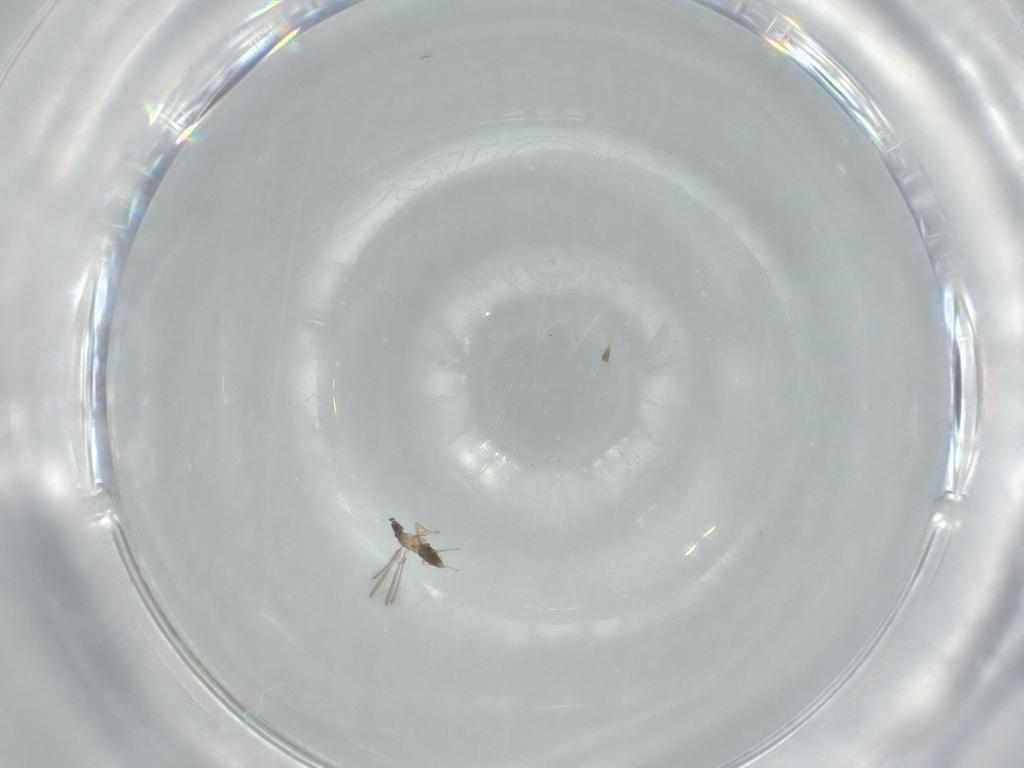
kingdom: Animalia
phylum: Arthropoda
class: Insecta
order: Hymenoptera
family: Mymaridae
